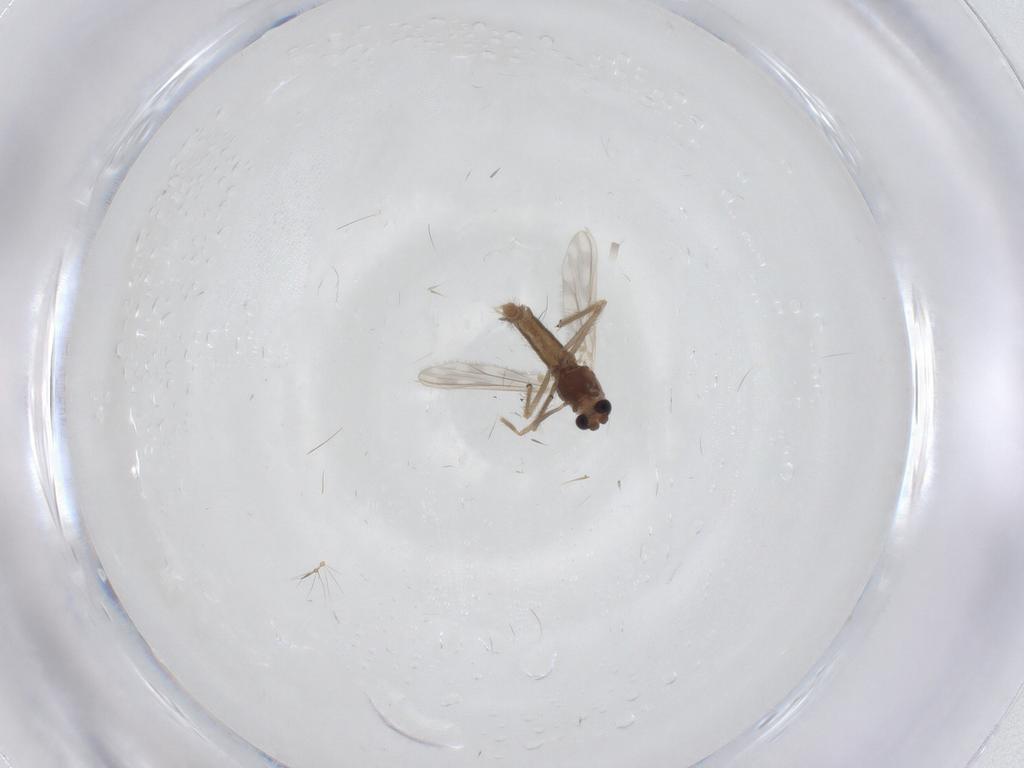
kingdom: Animalia
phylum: Arthropoda
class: Insecta
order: Diptera
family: Chironomidae
